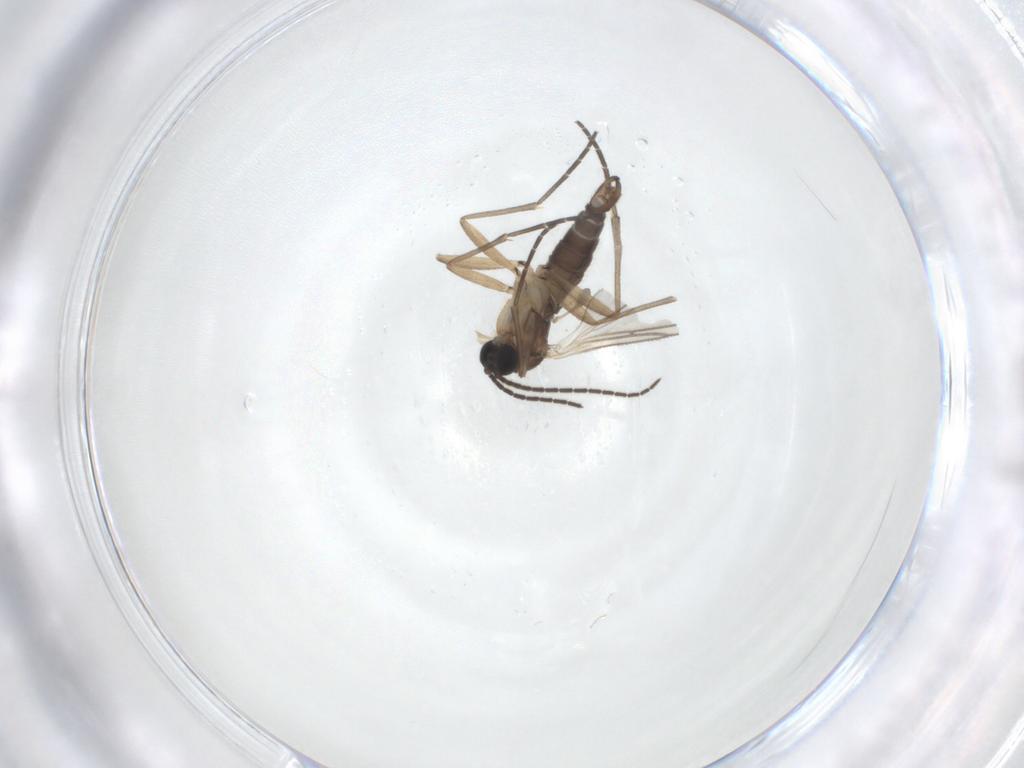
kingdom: Animalia
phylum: Arthropoda
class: Insecta
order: Diptera
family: Sciaridae
